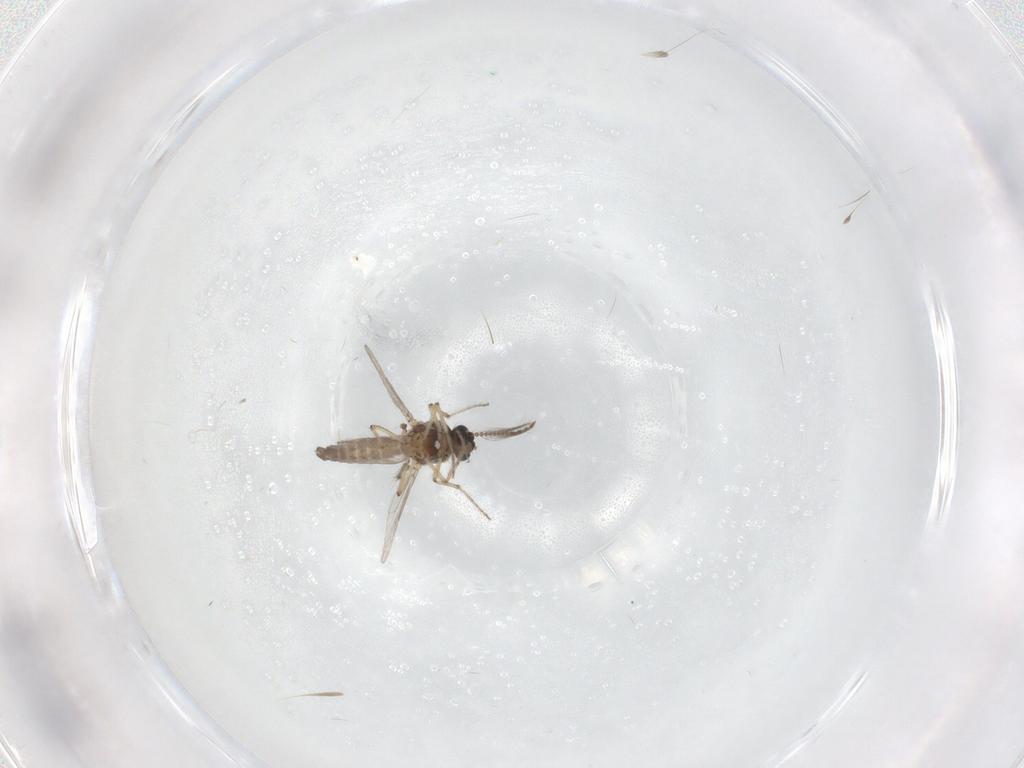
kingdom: Animalia
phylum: Arthropoda
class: Insecta
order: Diptera
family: Ceratopogonidae
